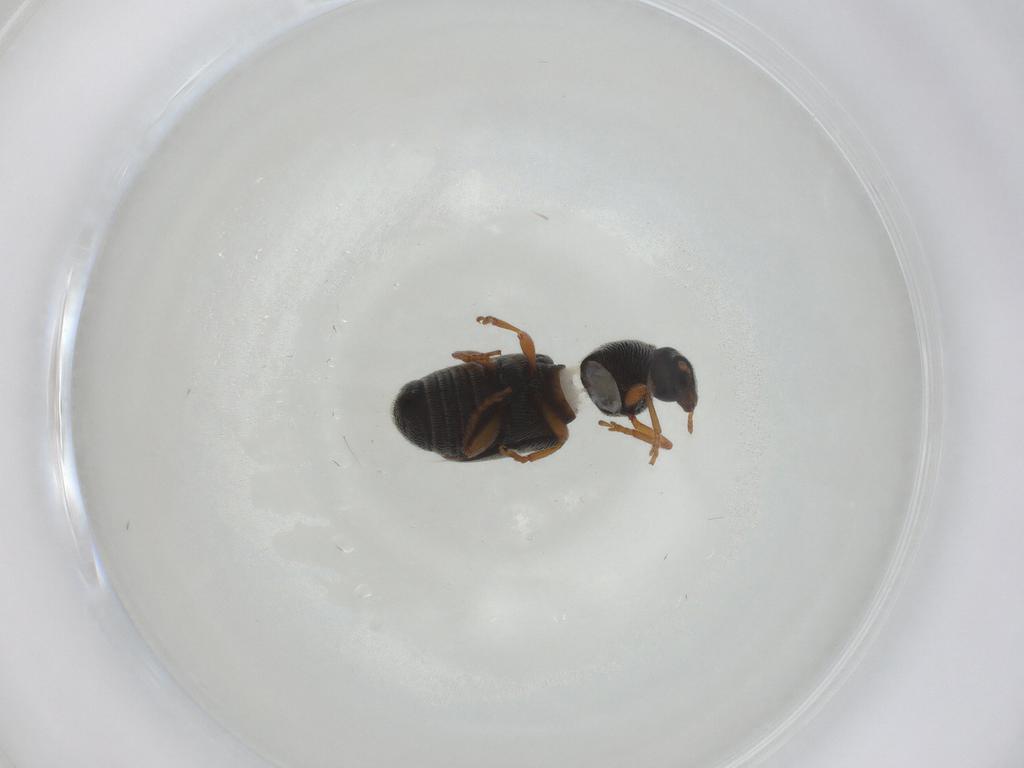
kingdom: Animalia
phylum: Arthropoda
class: Insecta
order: Coleoptera
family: Anthribidae
